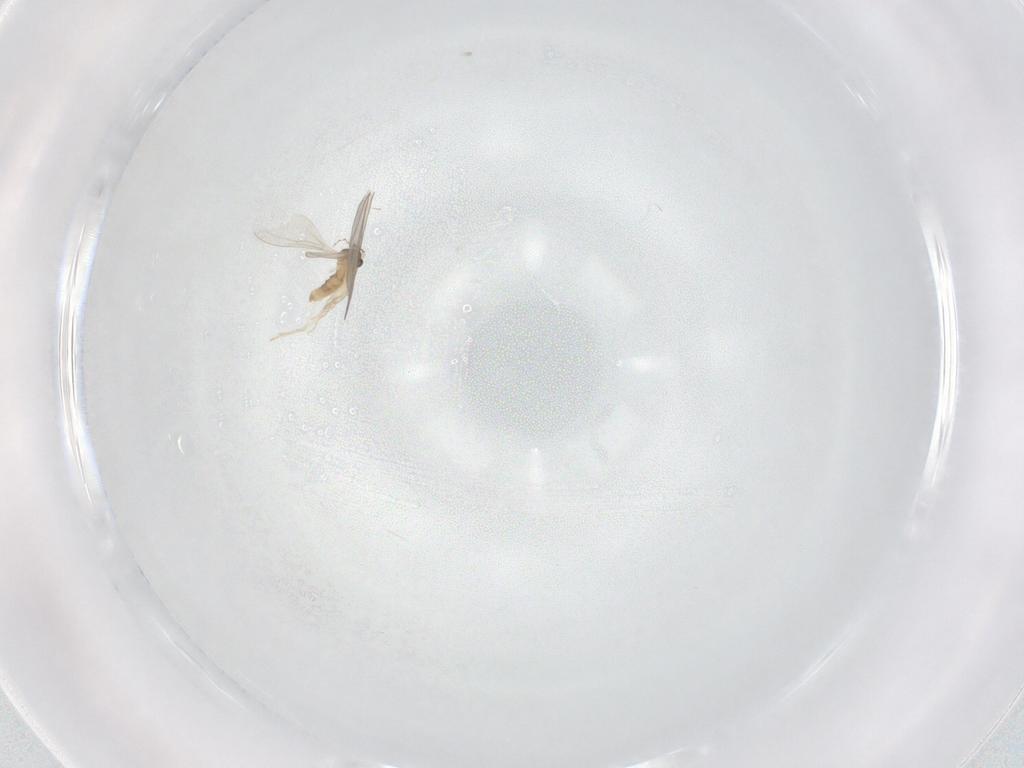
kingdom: Animalia
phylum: Arthropoda
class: Insecta
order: Diptera
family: Cecidomyiidae
